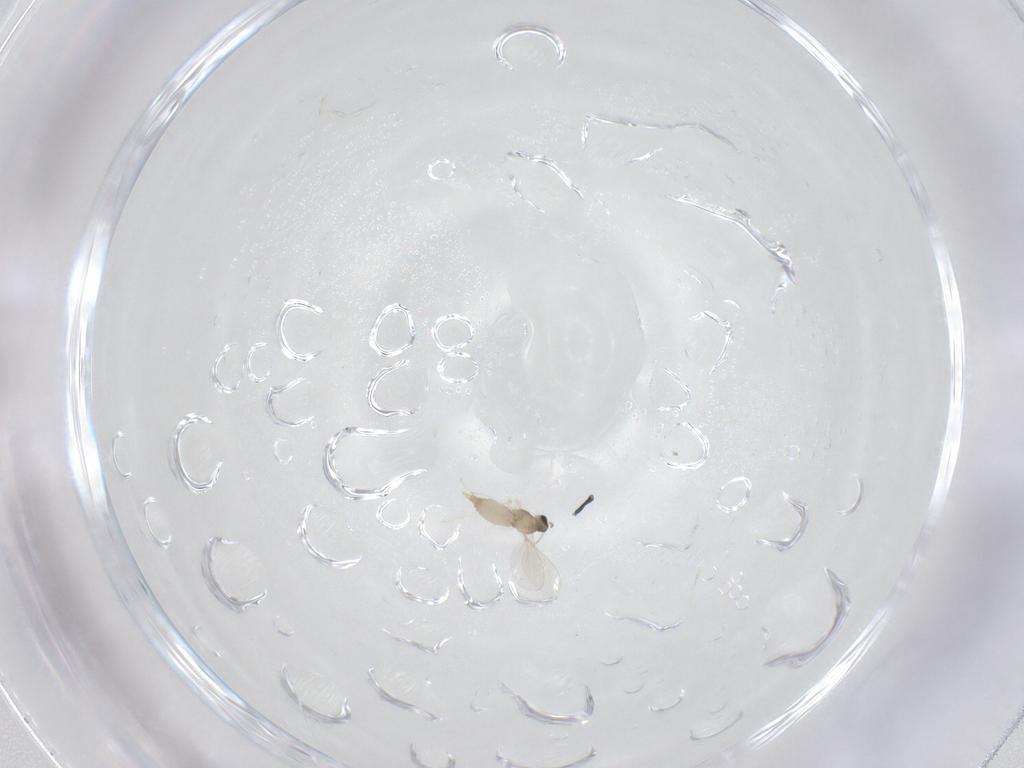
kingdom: Animalia
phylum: Arthropoda
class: Insecta
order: Diptera
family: Cecidomyiidae
